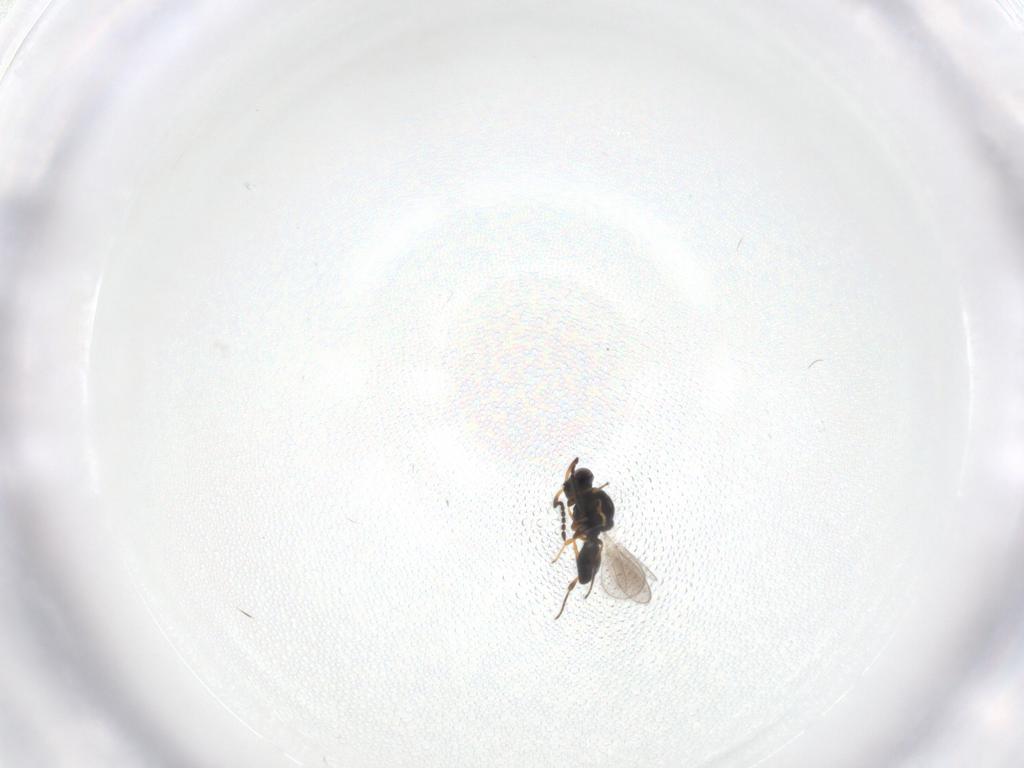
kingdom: Animalia
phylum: Arthropoda
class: Insecta
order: Hymenoptera
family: Platygastridae
